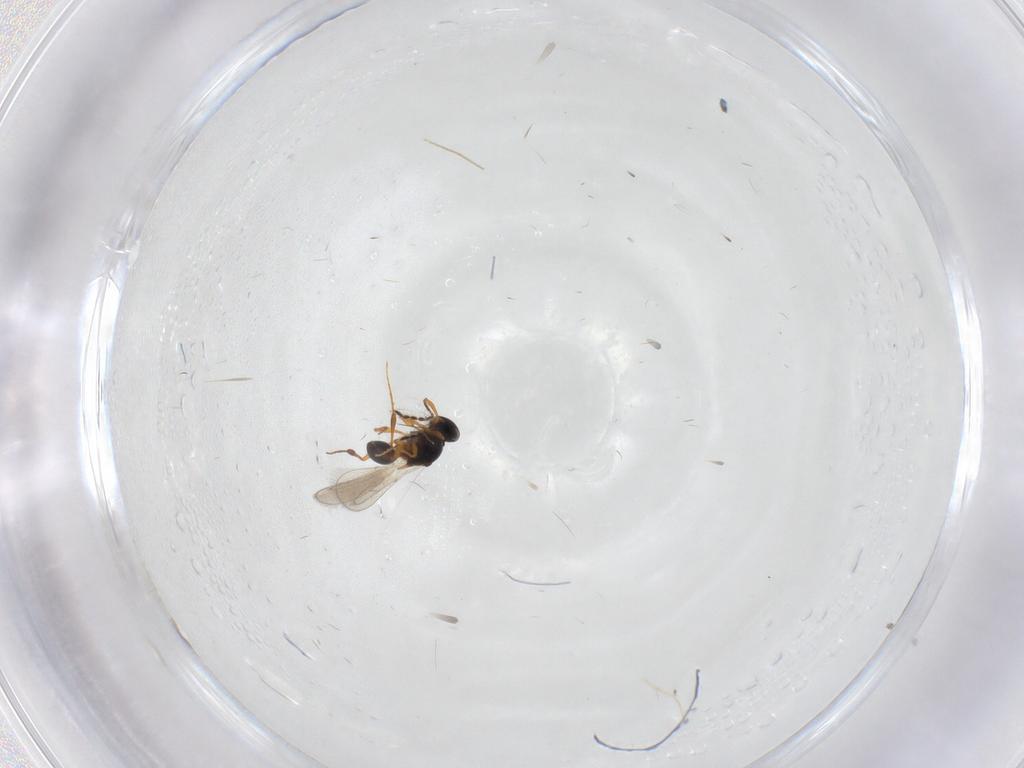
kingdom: Animalia
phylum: Arthropoda
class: Insecta
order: Hymenoptera
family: Platygastridae
